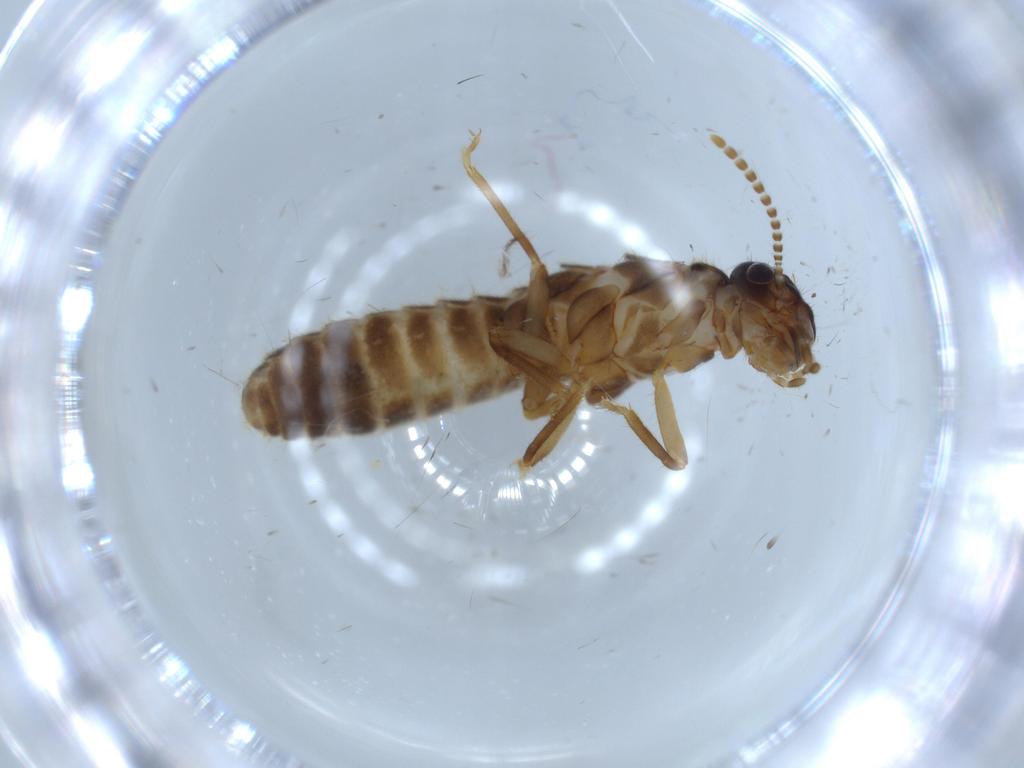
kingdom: Animalia
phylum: Arthropoda
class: Insecta
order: Blattodea
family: Termitidae
